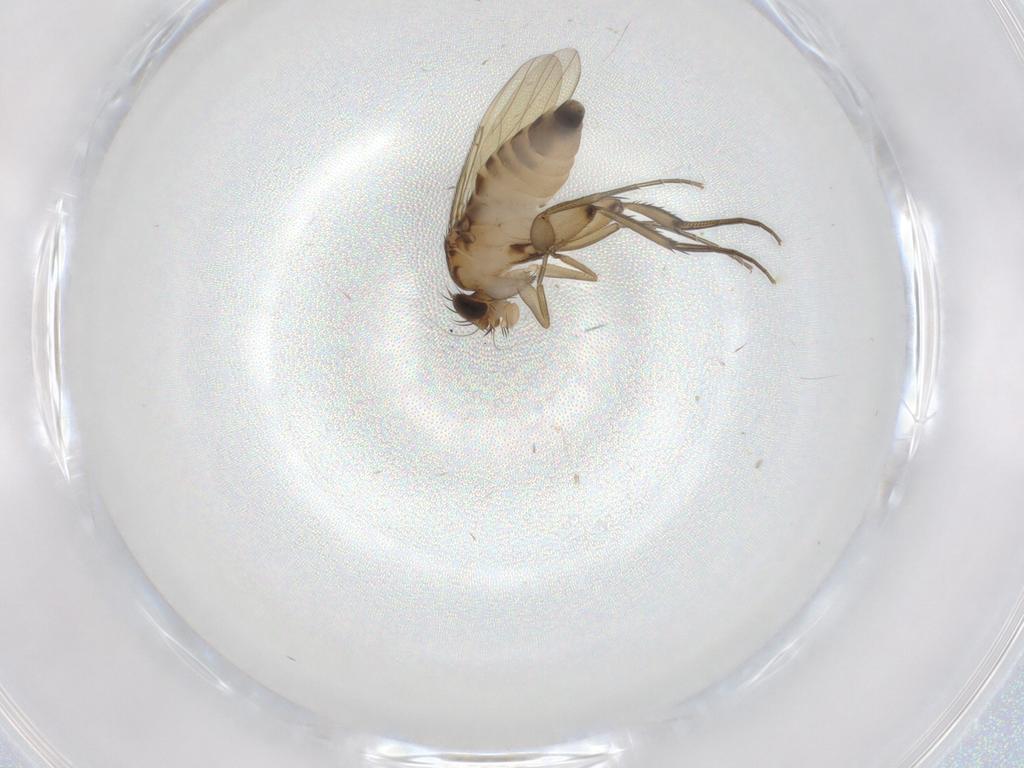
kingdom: Animalia
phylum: Arthropoda
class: Insecta
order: Diptera
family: Phoridae
